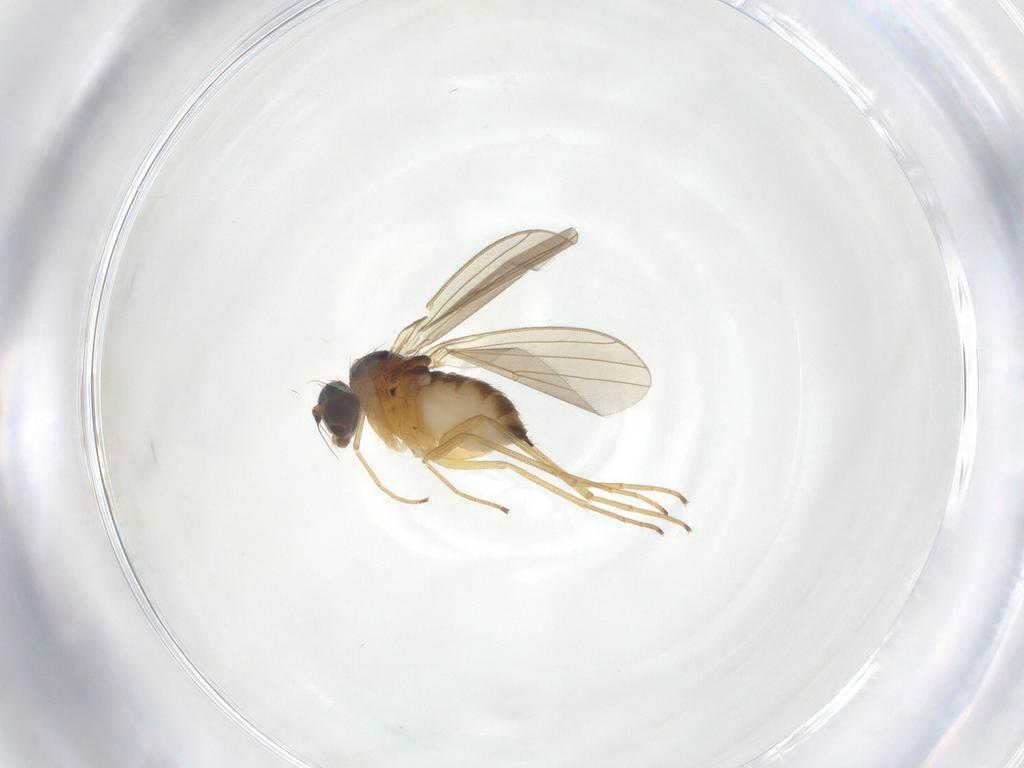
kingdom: Animalia
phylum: Arthropoda
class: Insecta
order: Diptera
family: Dolichopodidae
